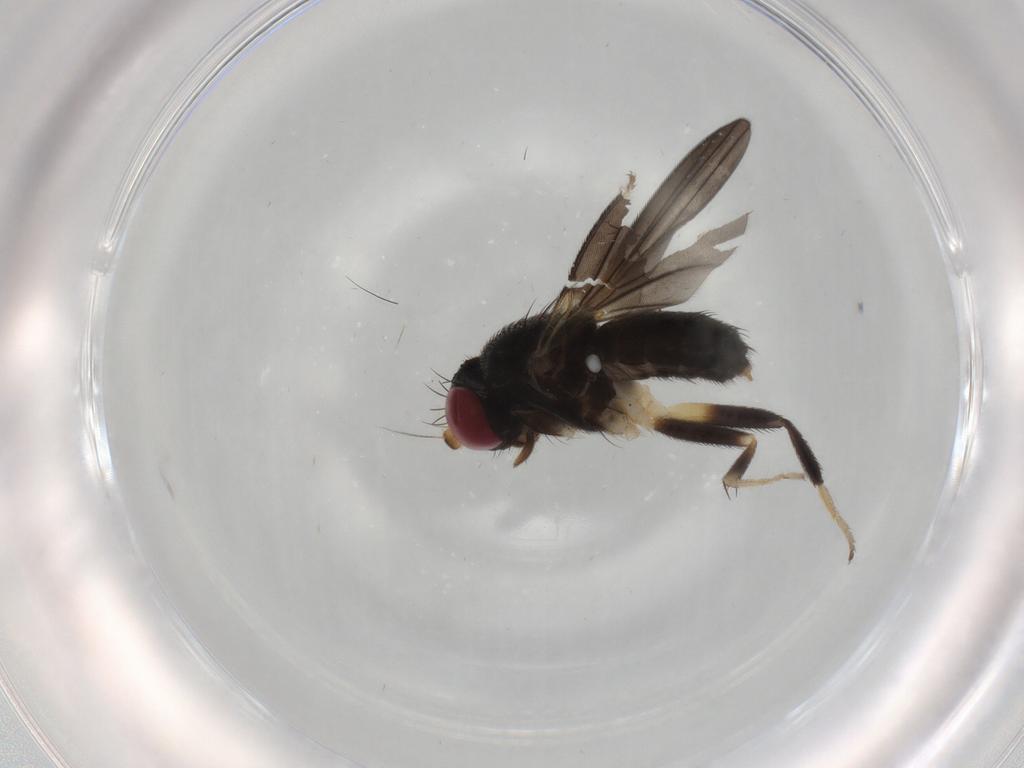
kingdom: Animalia
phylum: Arthropoda
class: Insecta
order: Diptera
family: Clusiidae
